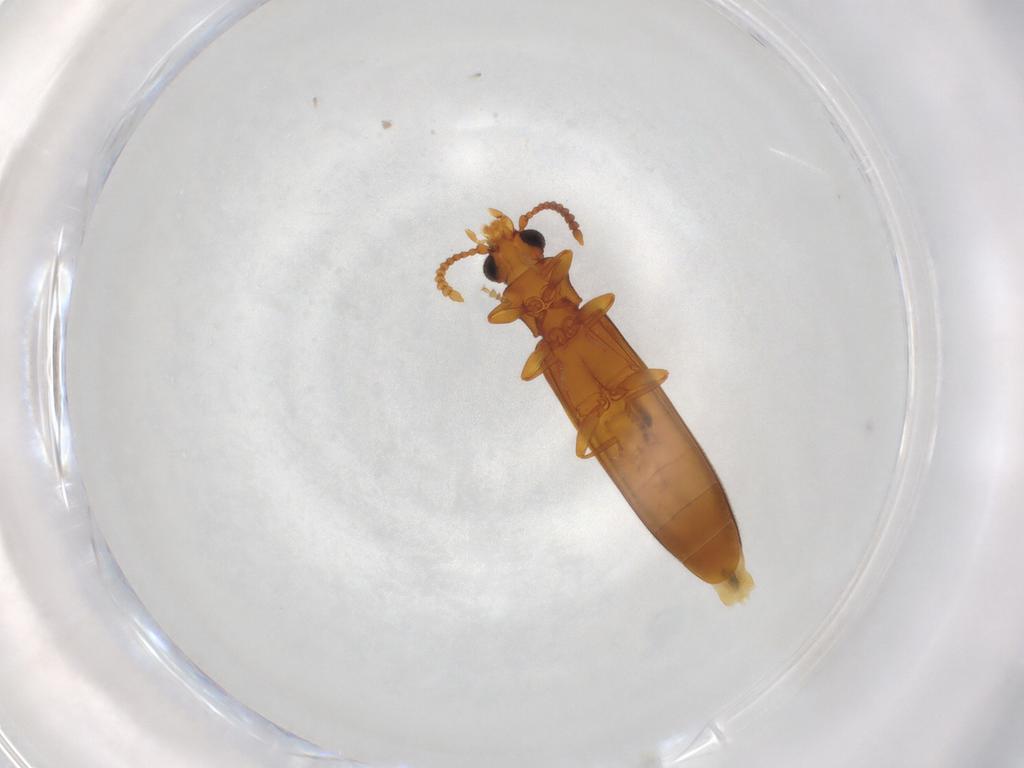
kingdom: Animalia
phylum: Arthropoda
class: Insecta
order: Coleoptera
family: Mycteridae
